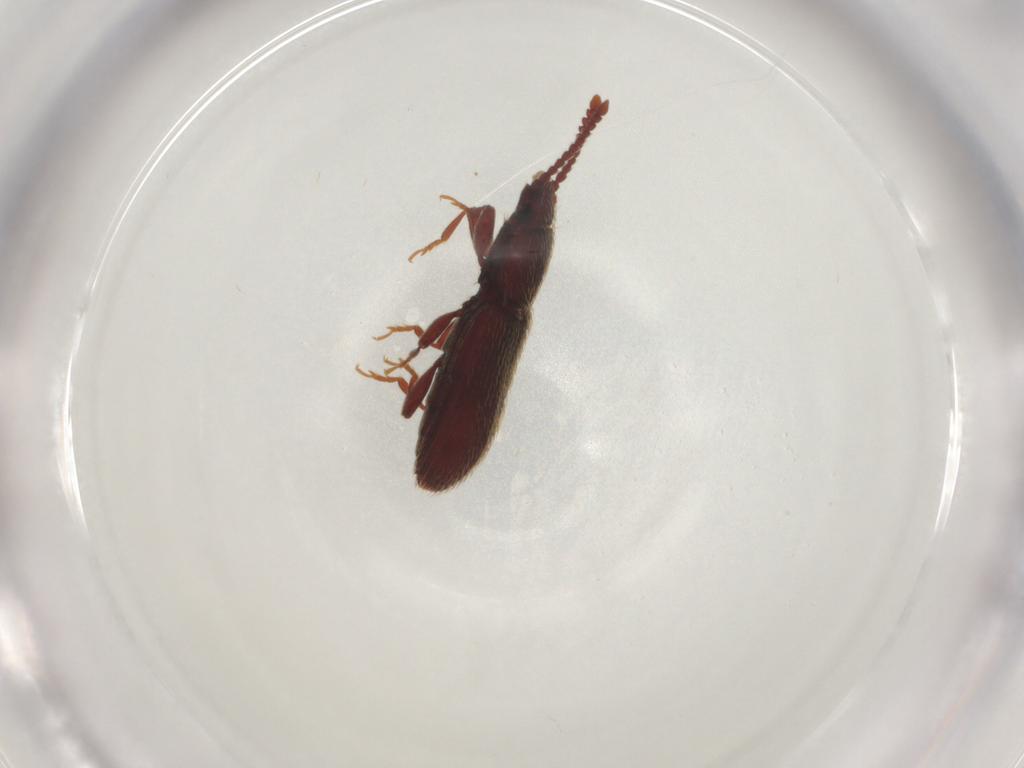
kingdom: Animalia
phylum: Arthropoda
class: Insecta
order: Coleoptera
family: Silvanidae
